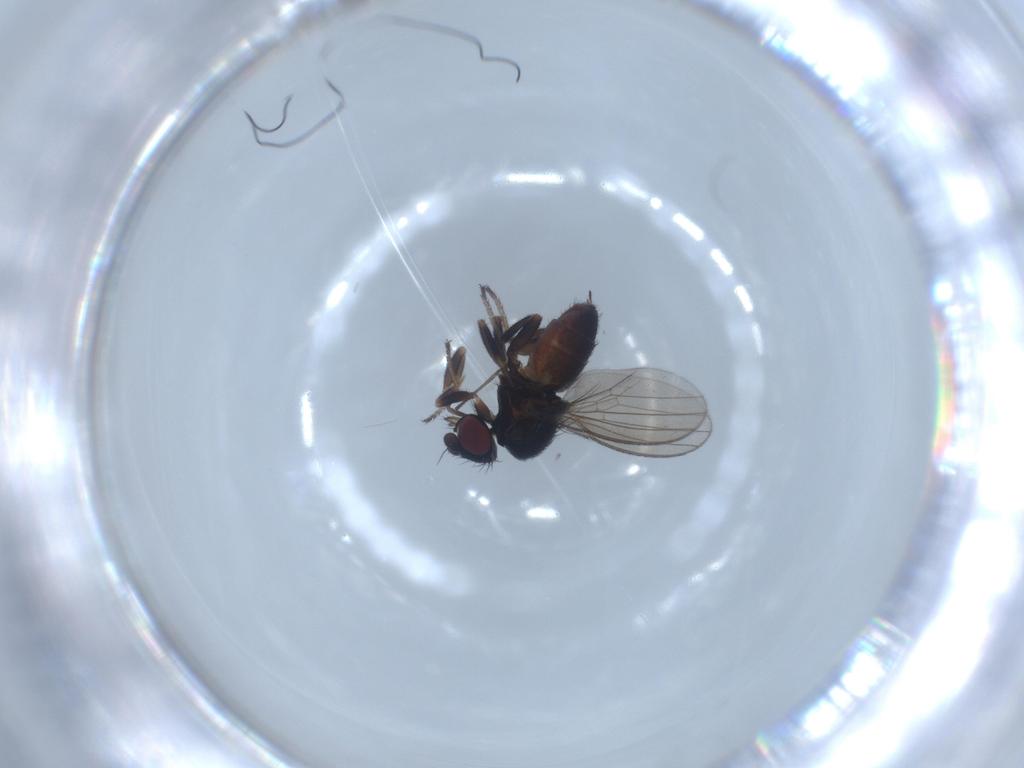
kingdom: Animalia
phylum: Arthropoda
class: Insecta
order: Diptera
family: Milichiidae
